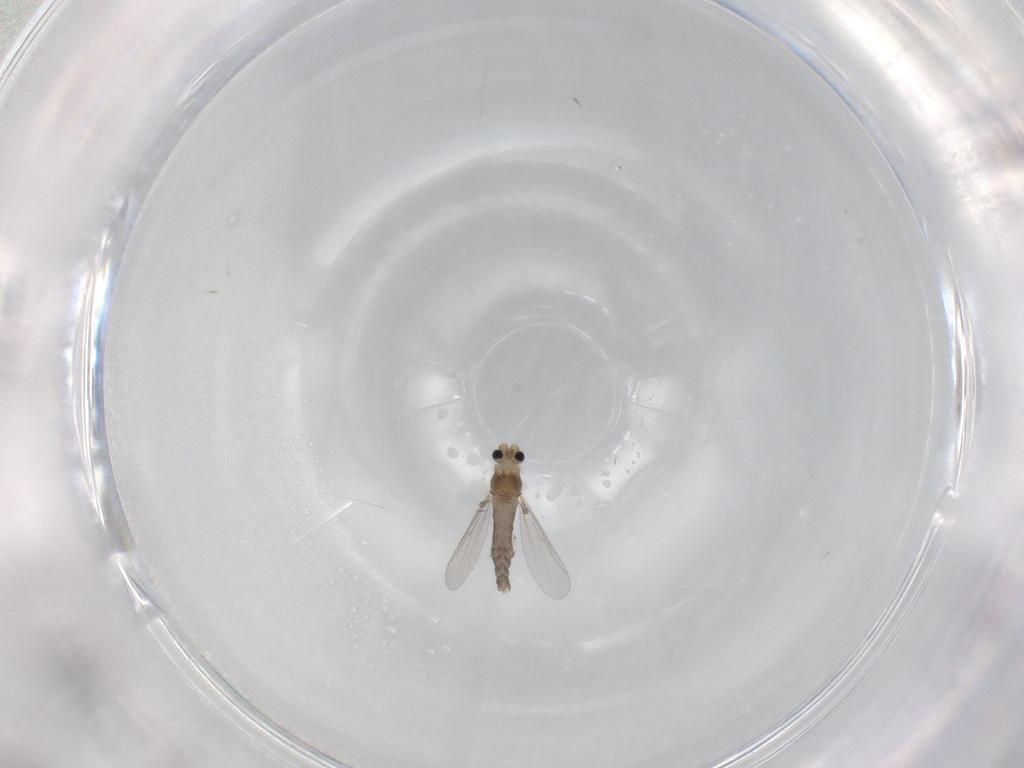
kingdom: Animalia
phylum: Arthropoda
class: Insecta
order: Diptera
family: Chironomidae
